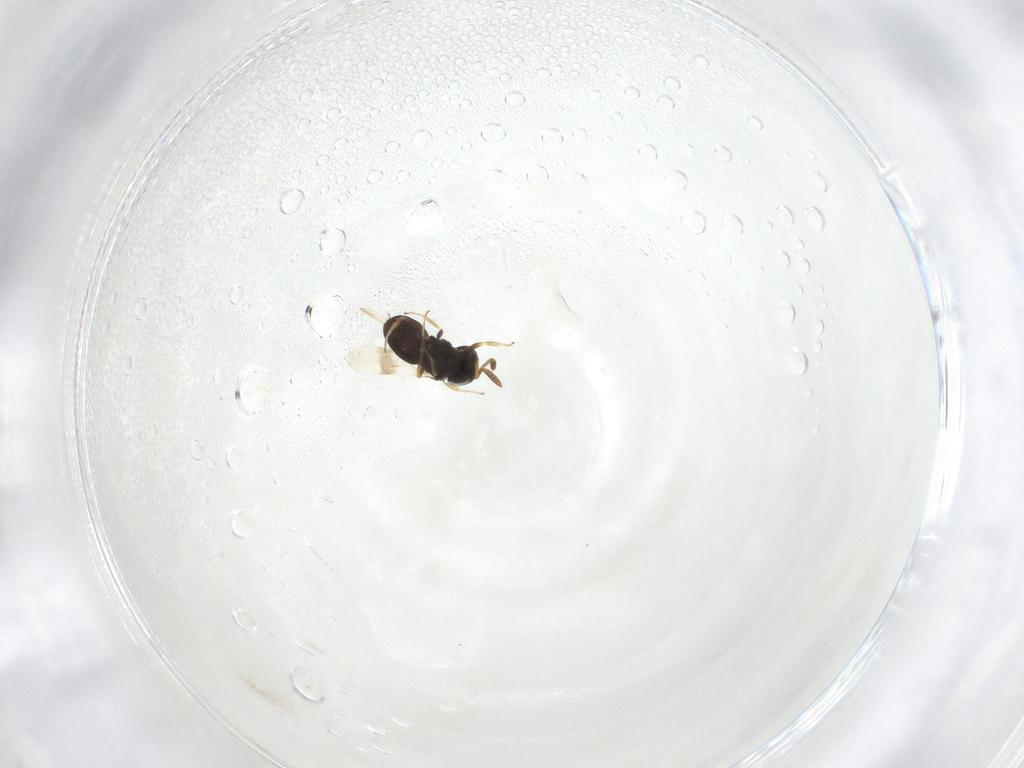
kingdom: Animalia
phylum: Arthropoda
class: Insecta
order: Hymenoptera
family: Scelionidae
